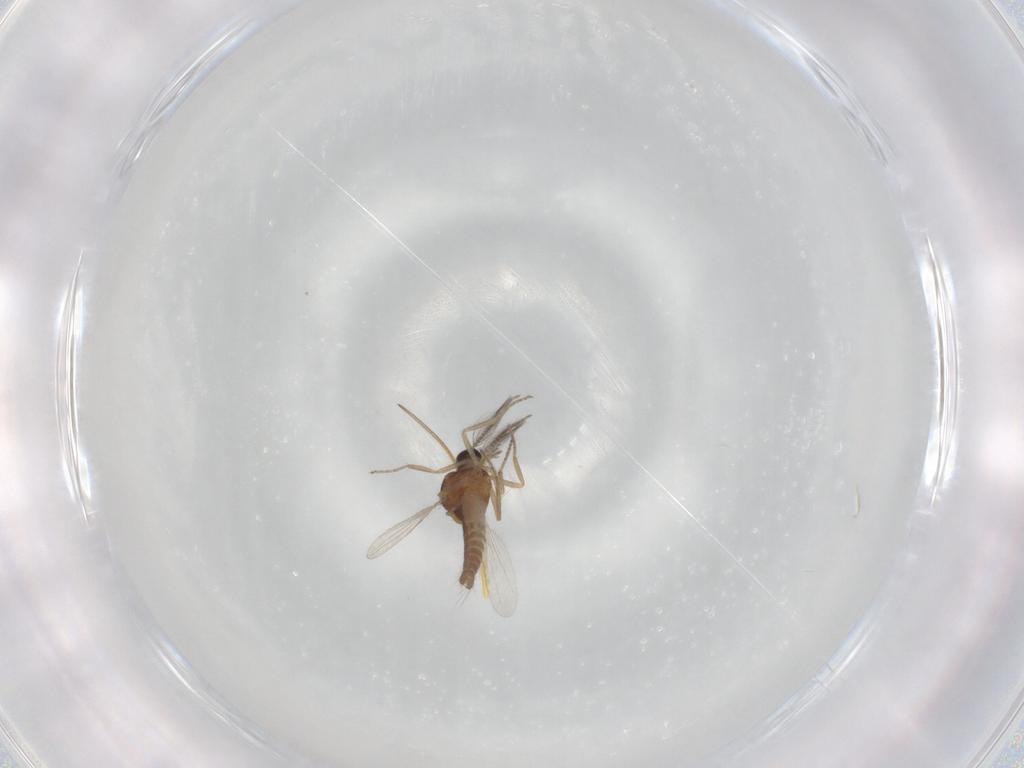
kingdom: Animalia
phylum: Arthropoda
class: Insecta
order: Diptera
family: Ceratopogonidae
